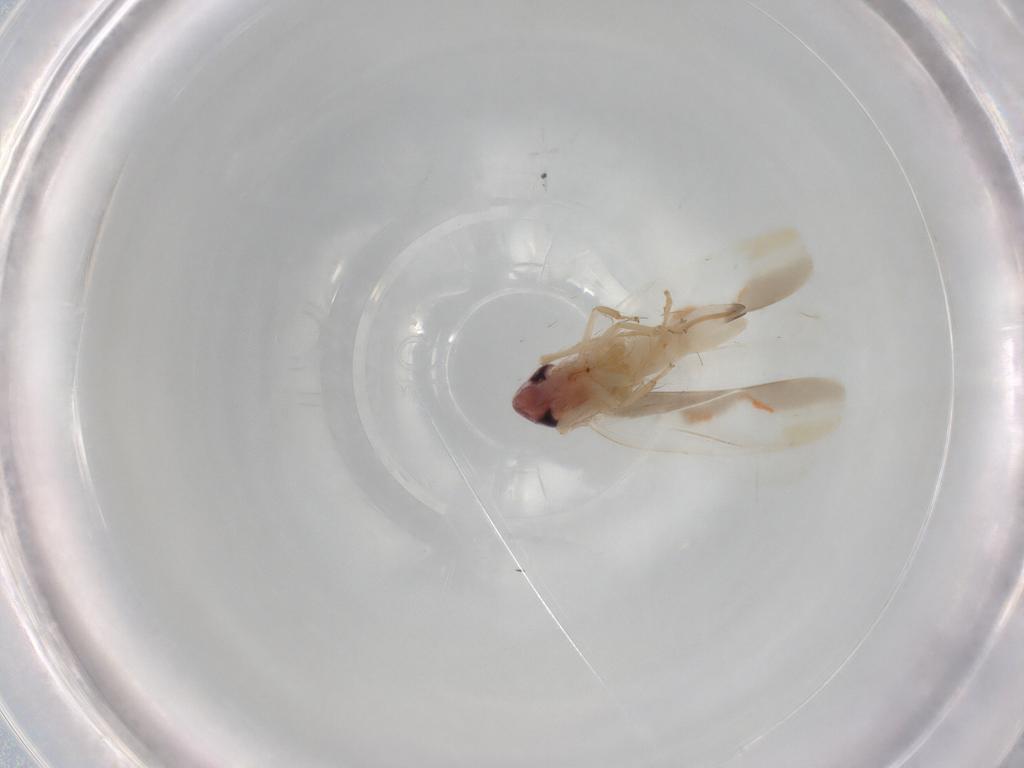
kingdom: Animalia
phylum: Arthropoda
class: Insecta
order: Hemiptera
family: Cicadellidae
